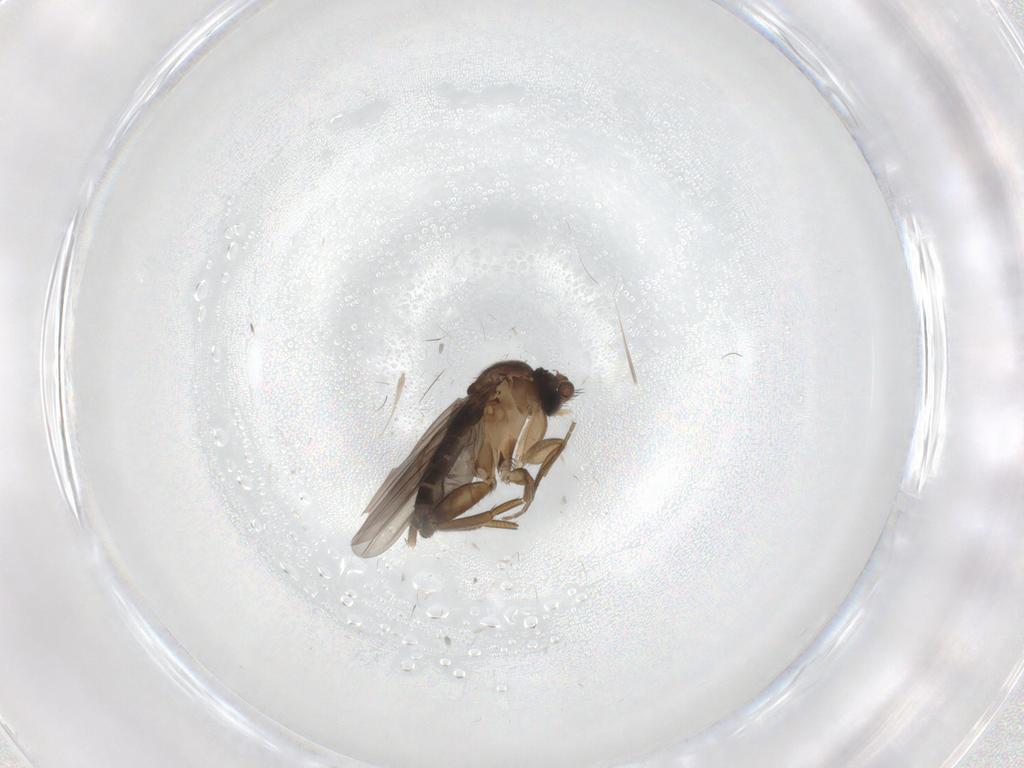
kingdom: Animalia
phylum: Arthropoda
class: Insecta
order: Diptera
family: Phoridae
